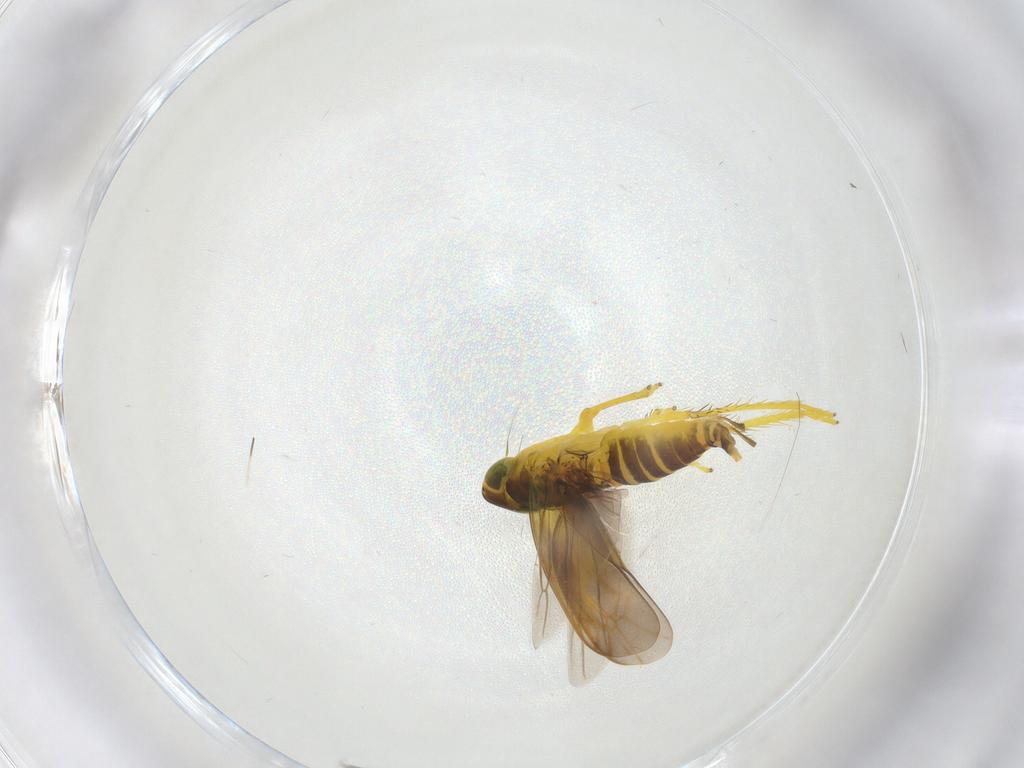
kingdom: Animalia
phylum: Arthropoda
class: Insecta
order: Hemiptera
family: Cicadellidae
